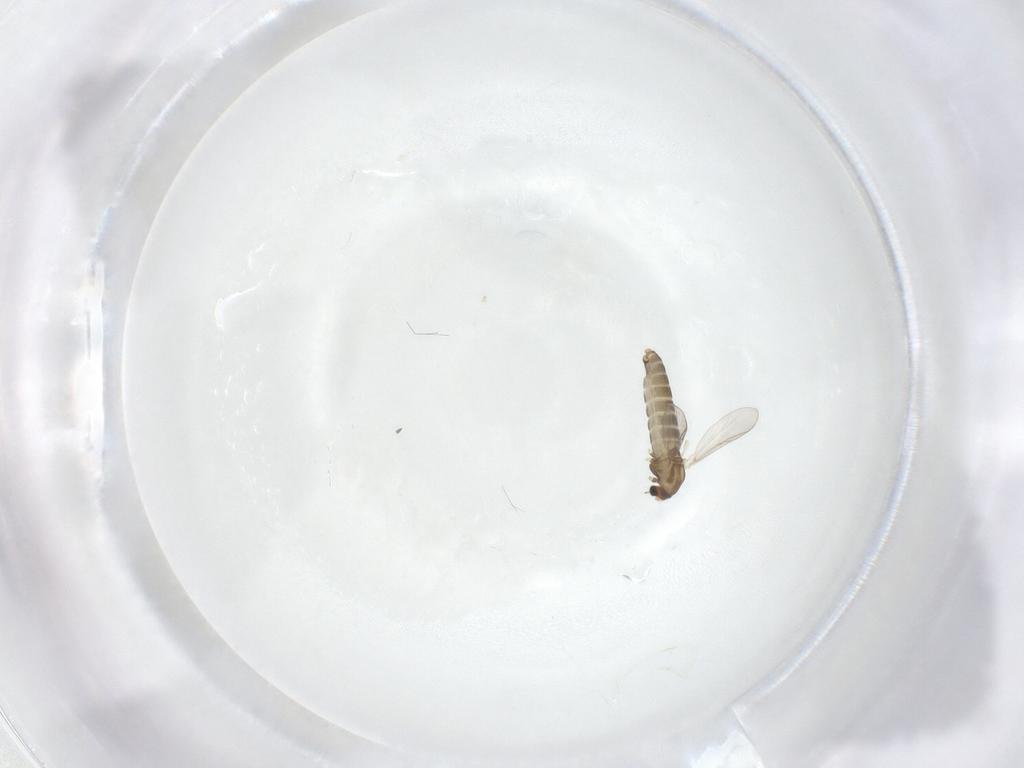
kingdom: Animalia
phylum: Arthropoda
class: Insecta
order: Diptera
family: Chironomidae
